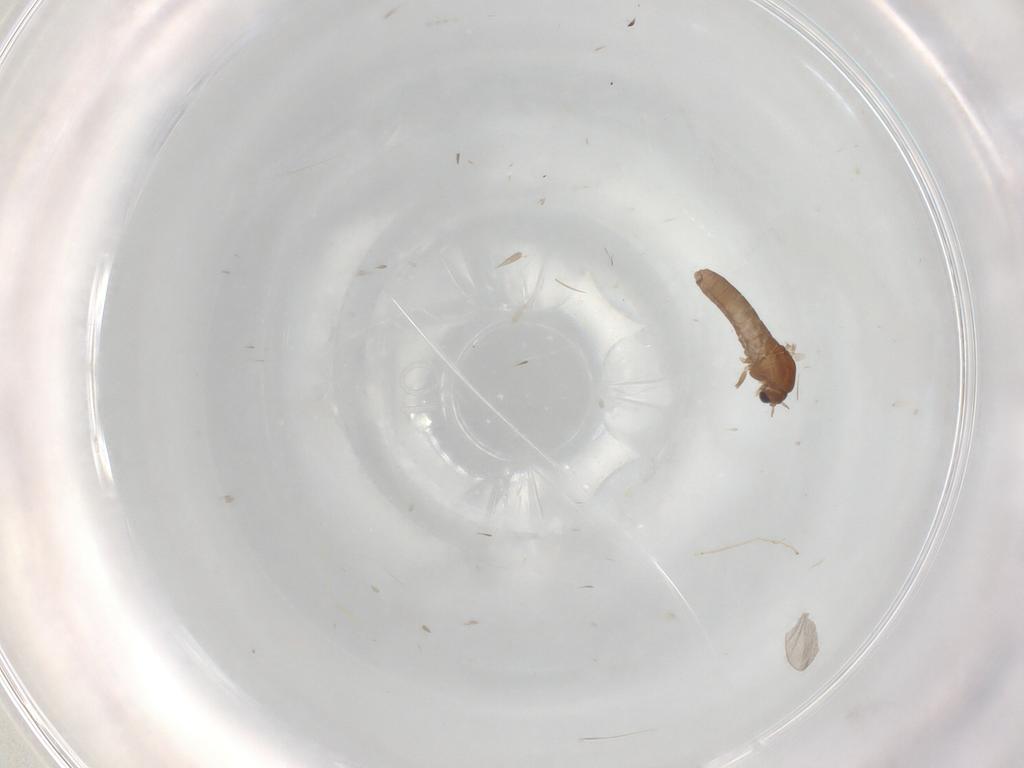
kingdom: Animalia
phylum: Arthropoda
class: Insecta
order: Diptera
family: Cecidomyiidae
